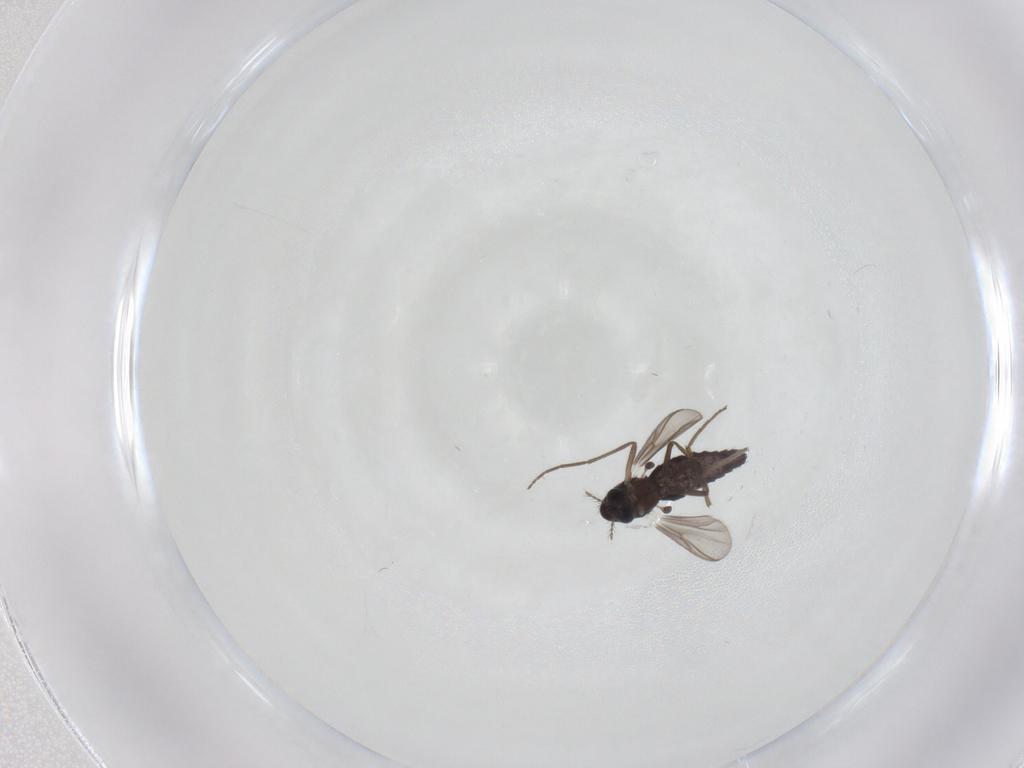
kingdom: Animalia
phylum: Arthropoda
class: Insecta
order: Diptera
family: Chironomidae
